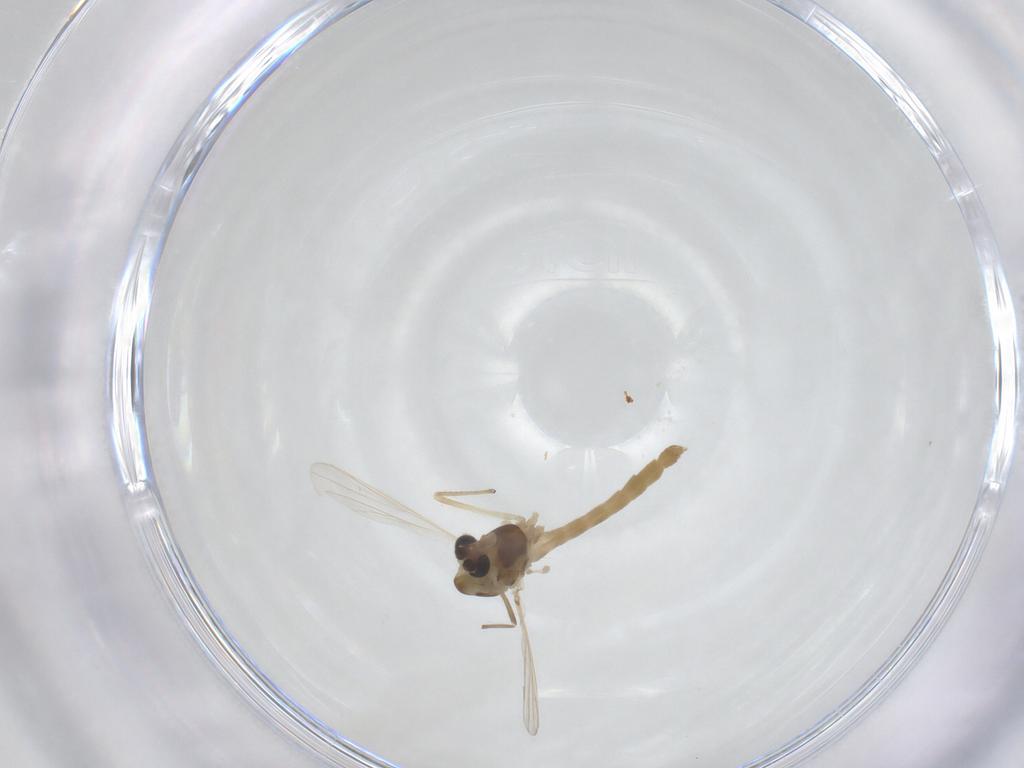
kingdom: Animalia
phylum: Arthropoda
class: Insecta
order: Diptera
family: Chironomidae
